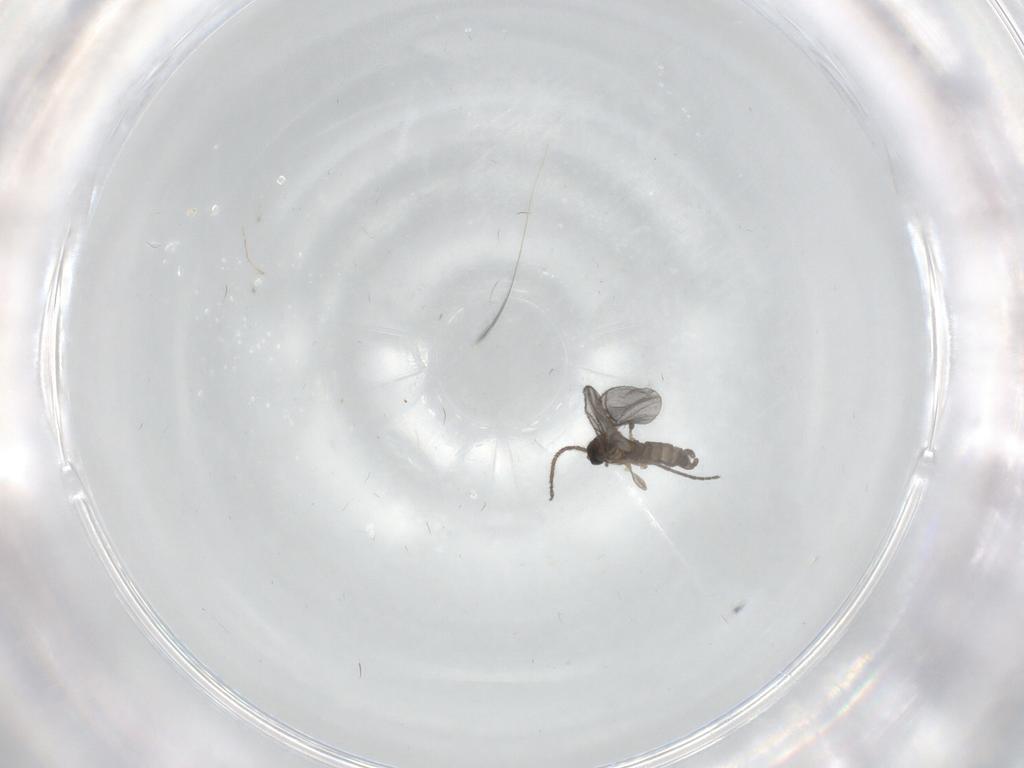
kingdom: Animalia
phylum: Arthropoda
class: Insecta
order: Diptera
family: Sciaridae
